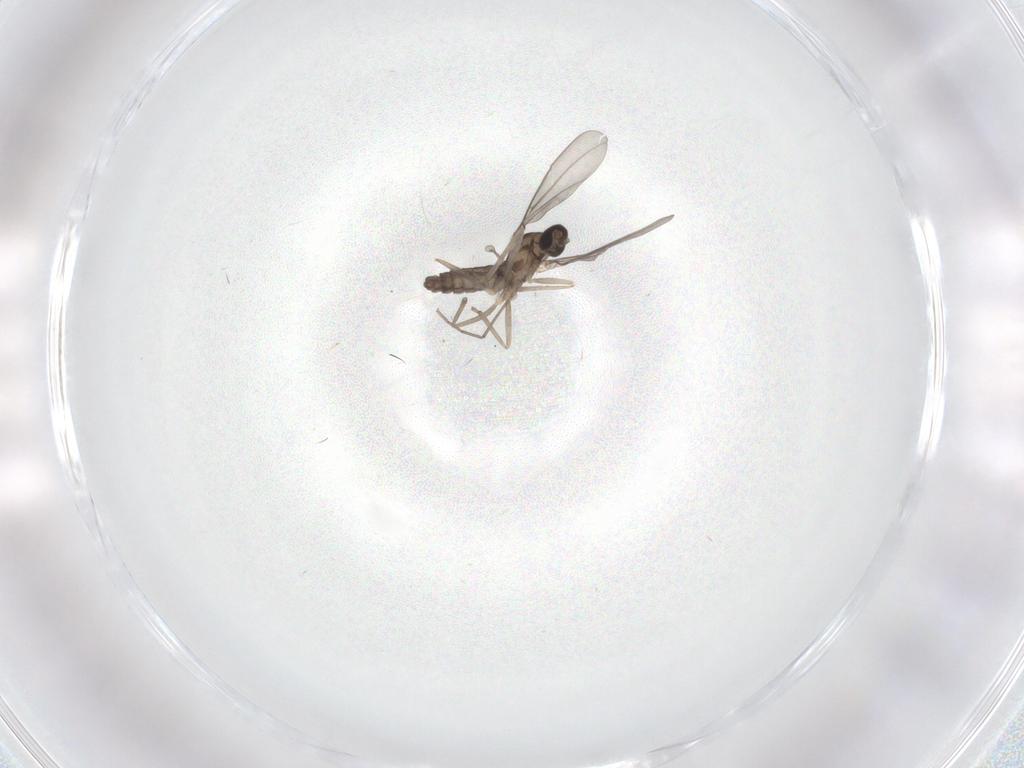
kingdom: Animalia
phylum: Arthropoda
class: Insecta
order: Diptera
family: Cecidomyiidae
